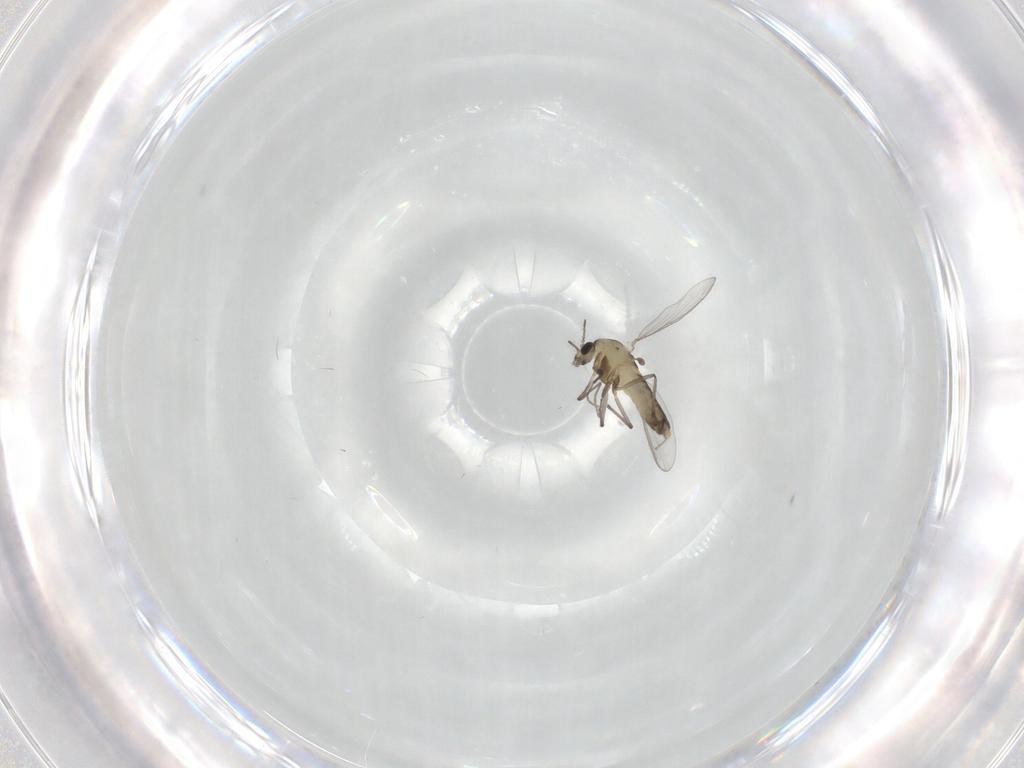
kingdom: Animalia
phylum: Arthropoda
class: Insecta
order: Diptera
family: Chironomidae
